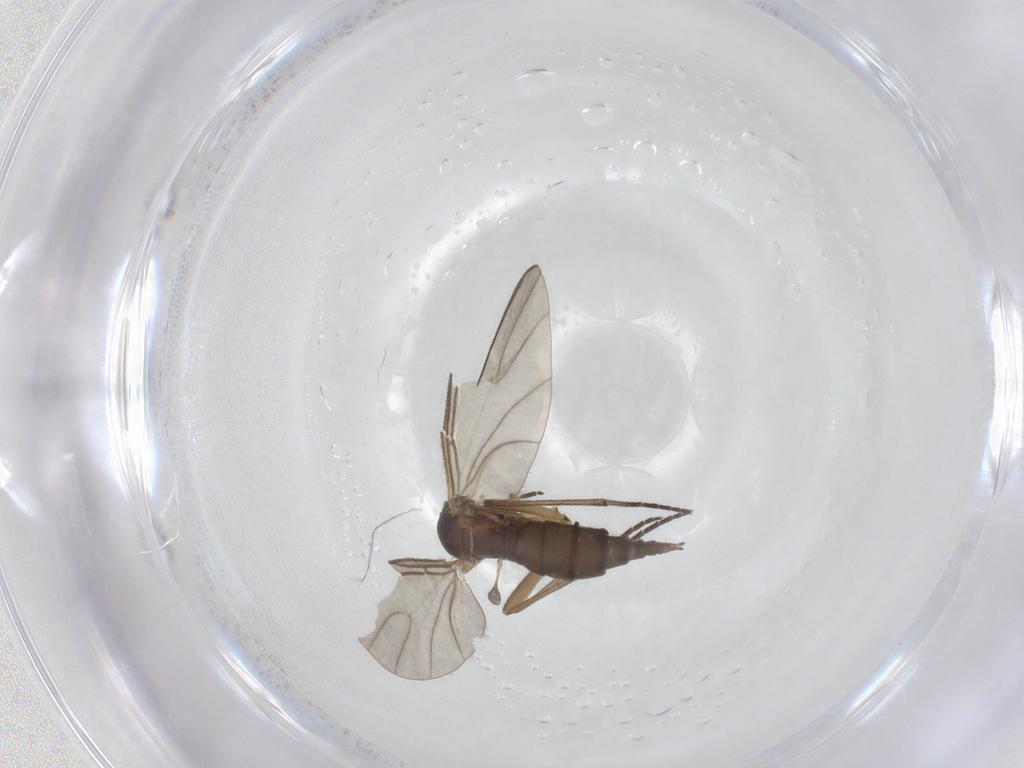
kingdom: Animalia
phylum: Arthropoda
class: Insecta
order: Diptera
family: Sciaridae
